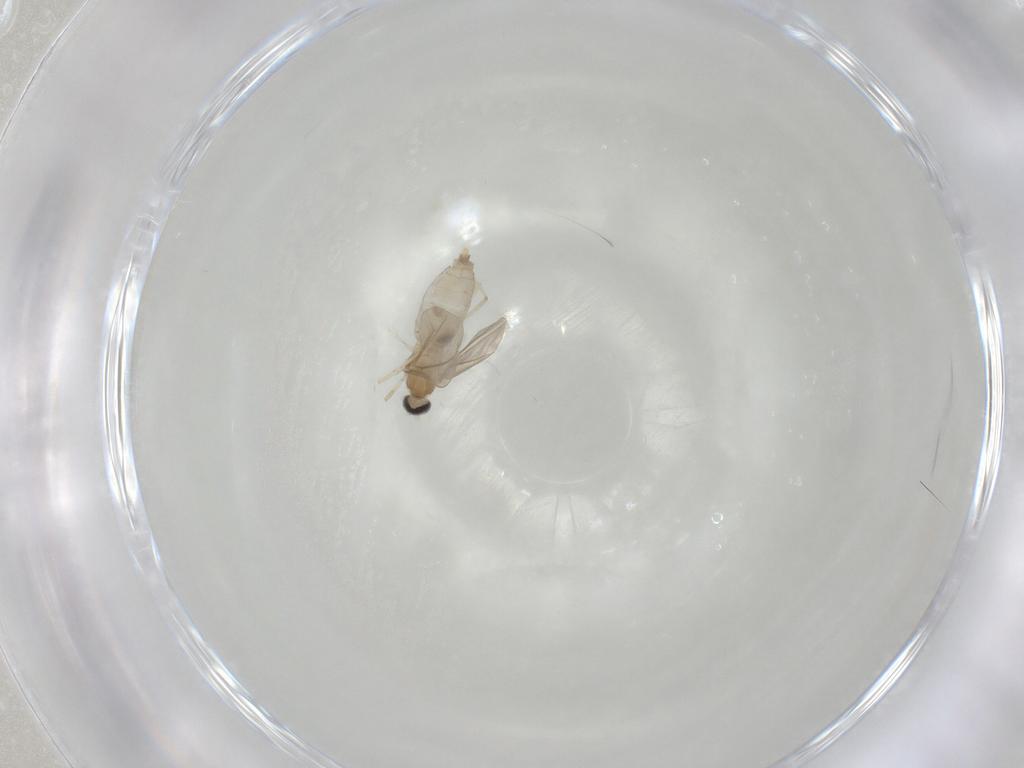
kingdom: Animalia
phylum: Arthropoda
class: Insecta
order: Diptera
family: Cecidomyiidae
